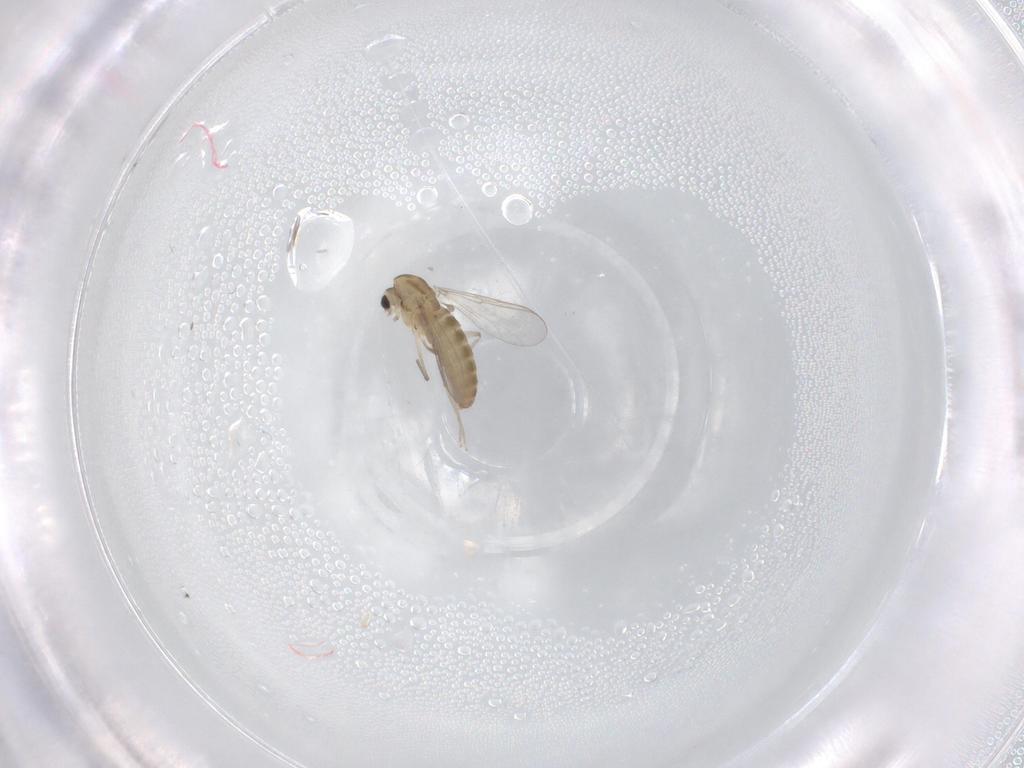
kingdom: Animalia
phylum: Arthropoda
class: Insecta
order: Diptera
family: Chironomidae
